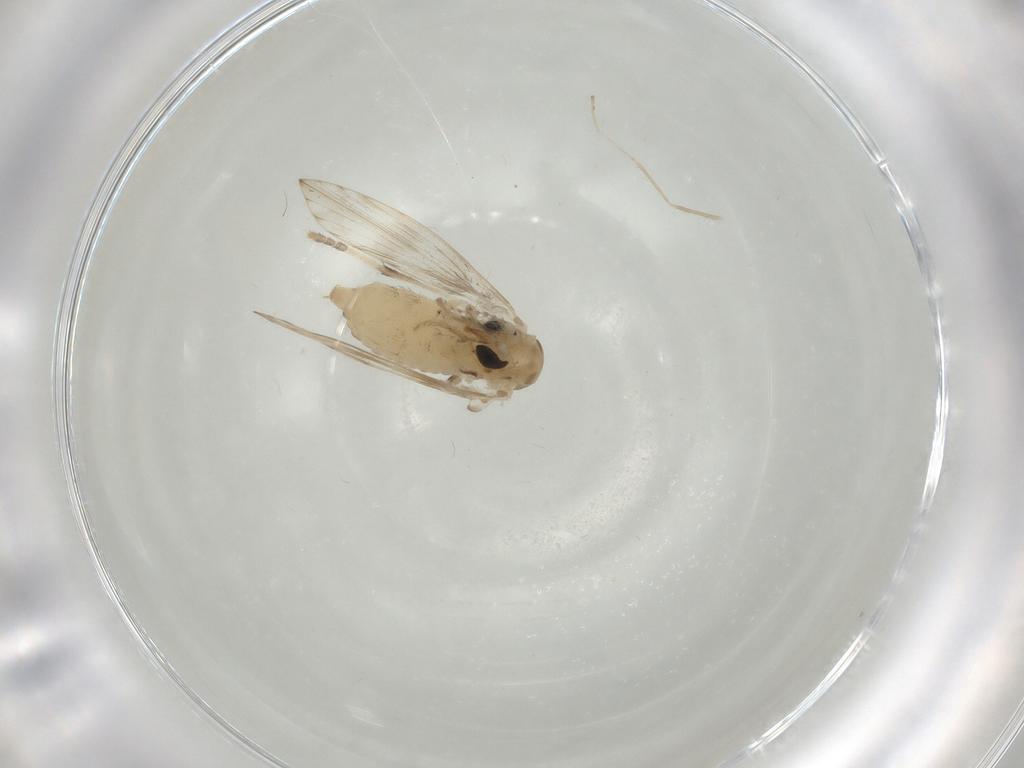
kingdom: Animalia
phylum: Arthropoda
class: Insecta
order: Diptera
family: Psychodidae
